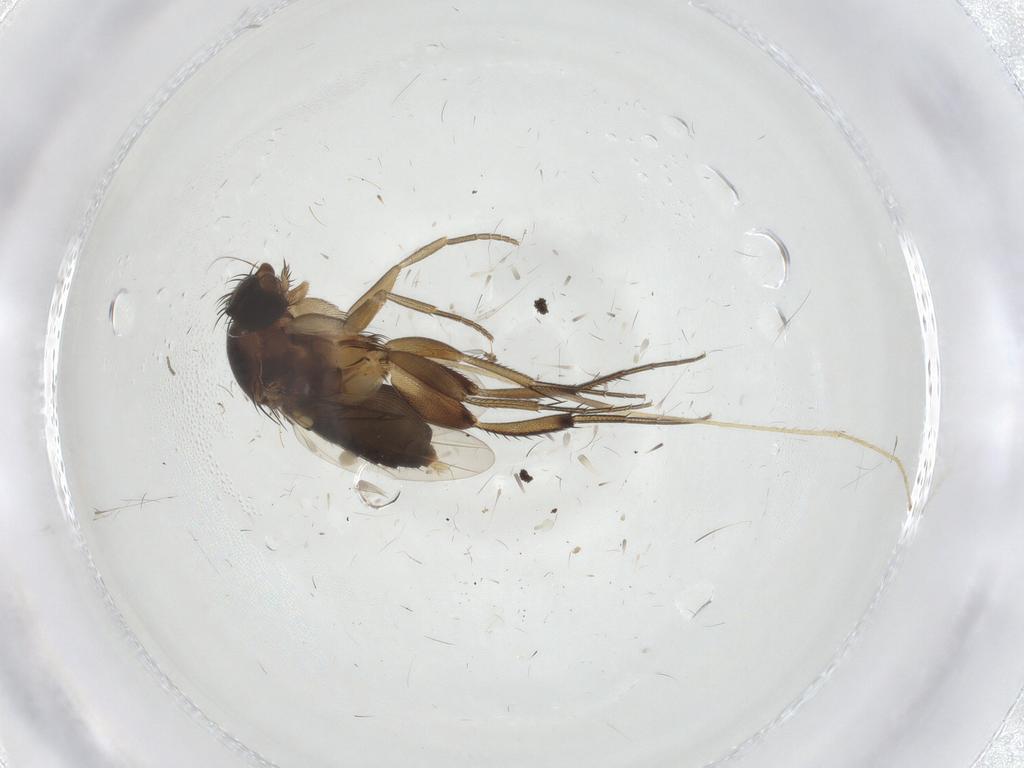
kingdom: Animalia
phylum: Arthropoda
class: Insecta
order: Diptera
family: Phoridae
